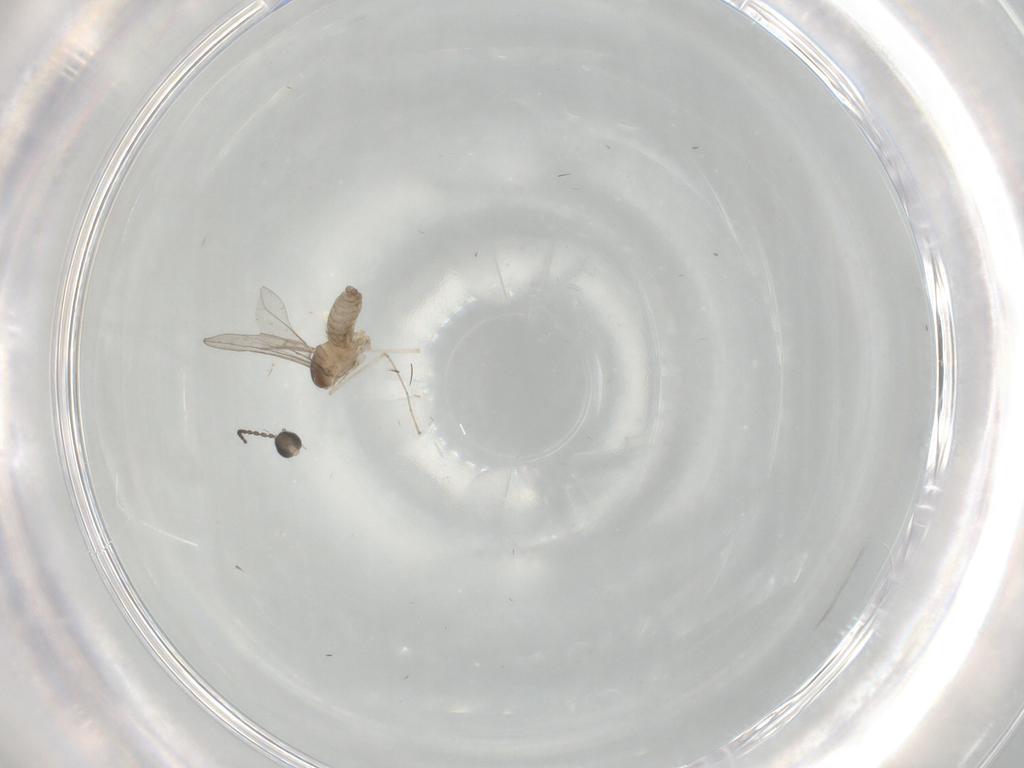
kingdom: Animalia
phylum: Arthropoda
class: Insecta
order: Diptera
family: Cecidomyiidae
